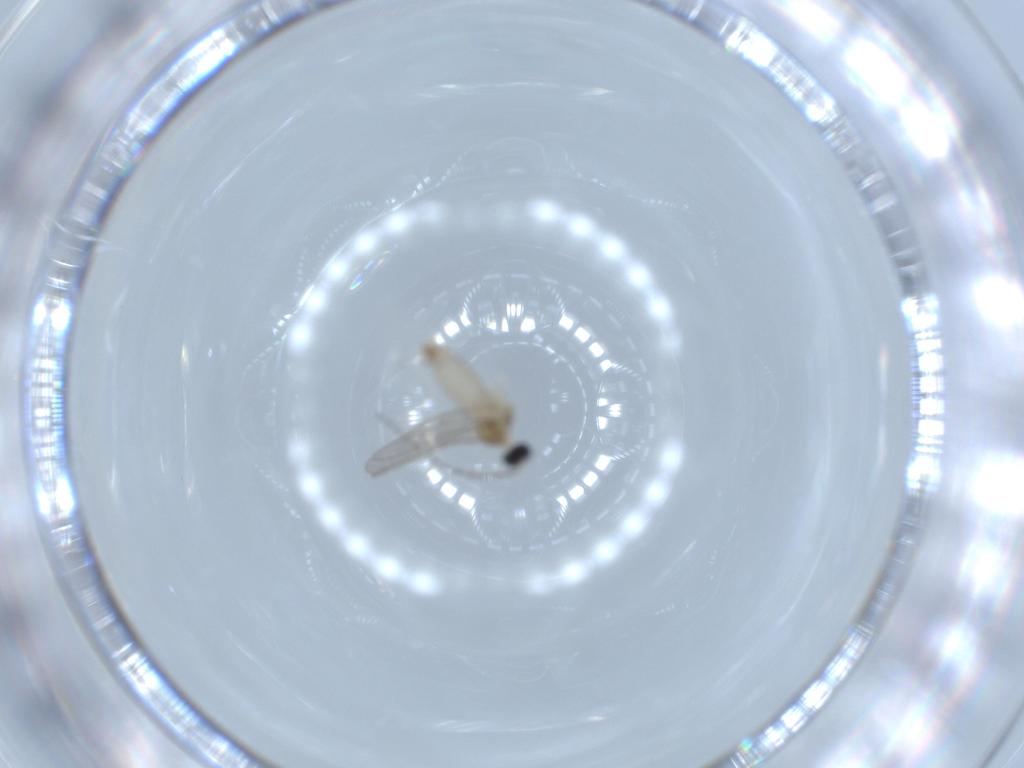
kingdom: Animalia
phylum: Arthropoda
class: Insecta
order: Diptera
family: Cecidomyiidae
